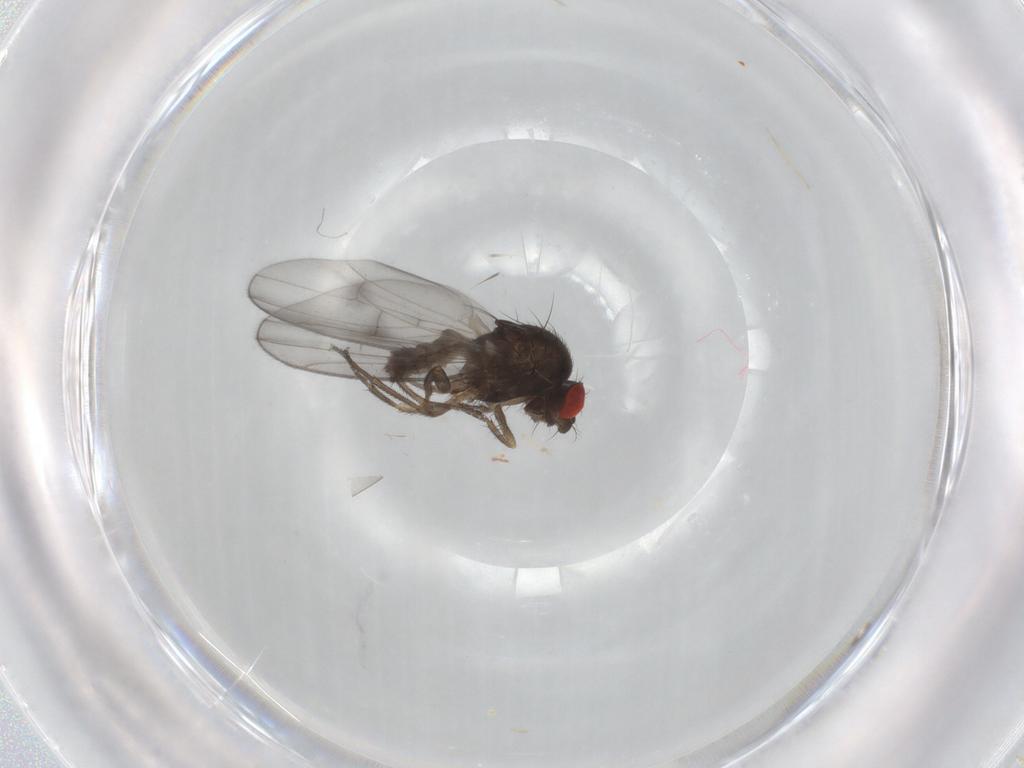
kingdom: Animalia
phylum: Arthropoda
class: Insecta
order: Diptera
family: Drosophilidae
